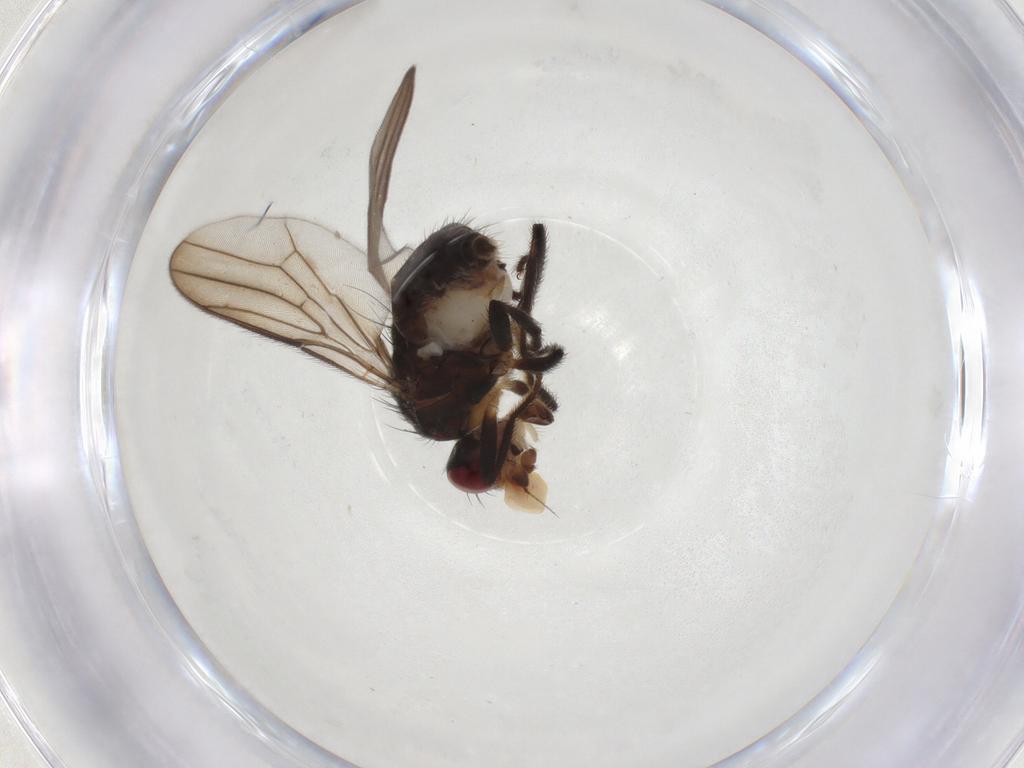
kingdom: Animalia
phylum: Arthropoda
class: Insecta
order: Diptera
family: Chloropidae
